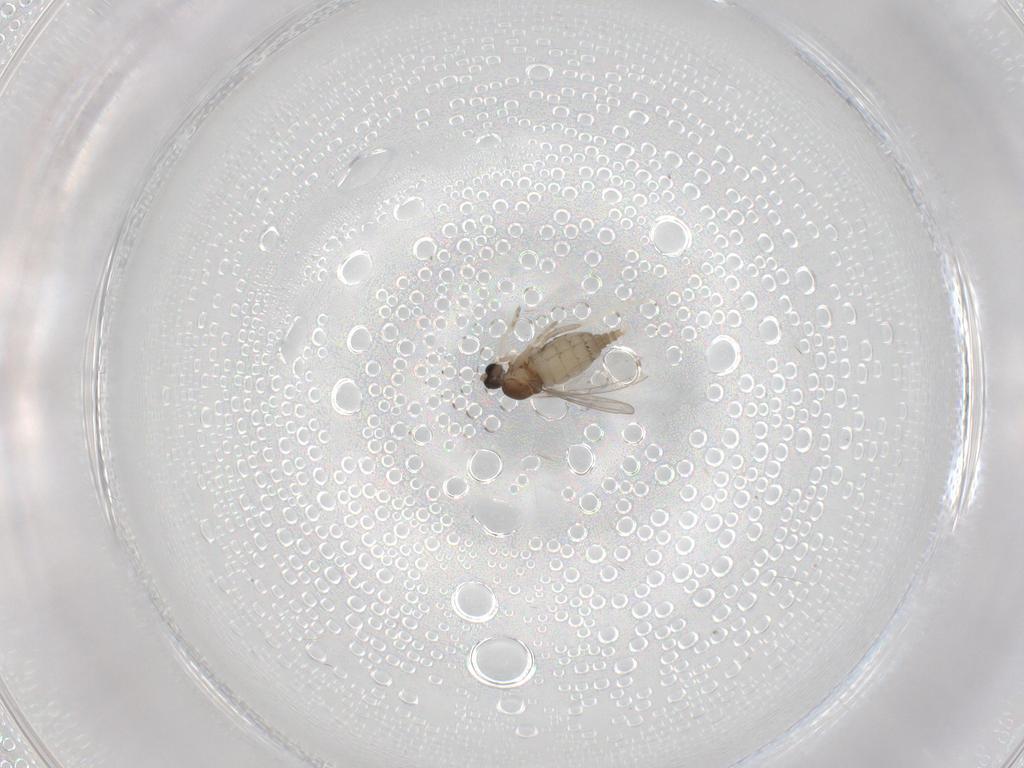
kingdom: Animalia
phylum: Arthropoda
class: Insecta
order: Diptera
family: Cecidomyiidae
